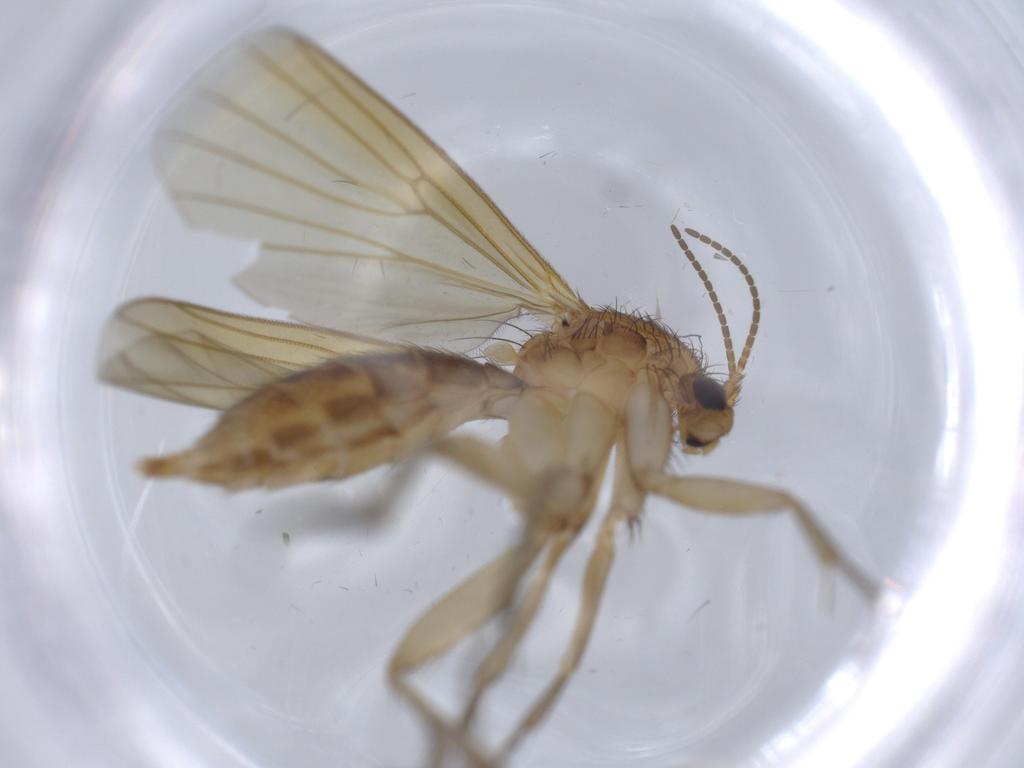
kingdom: Animalia
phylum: Arthropoda
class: Insecta
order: Diptera
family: Mycetophilidae
